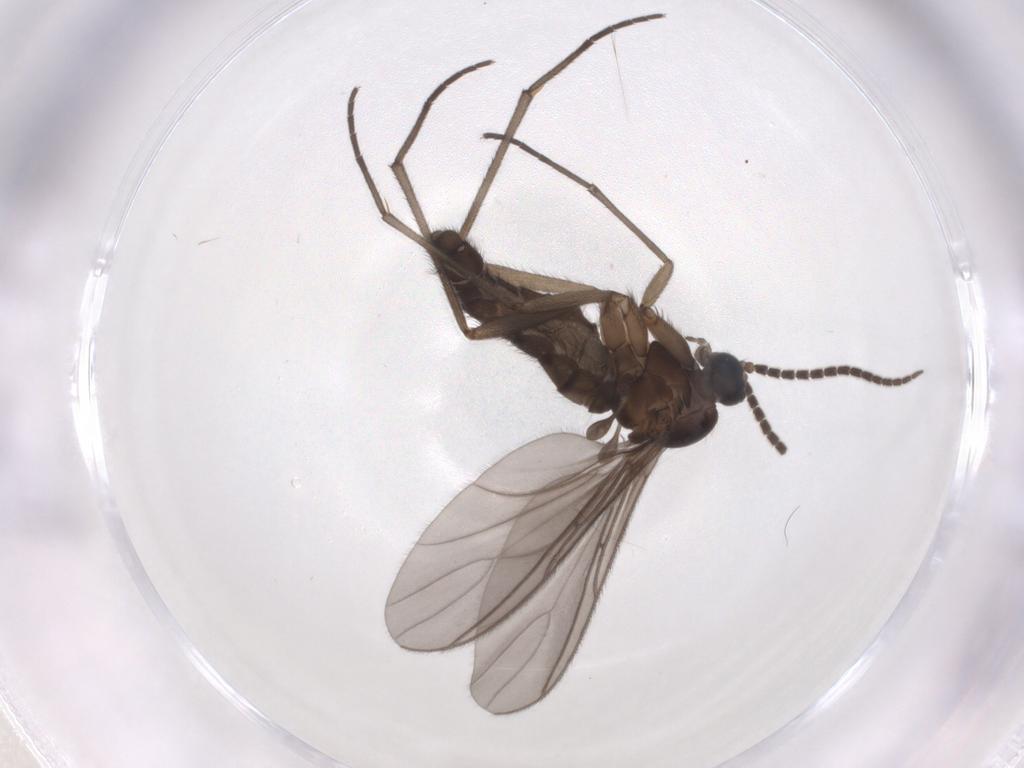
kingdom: Animalia
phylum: Arthropoda
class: Insecta
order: Diptera
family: Sciaridae
